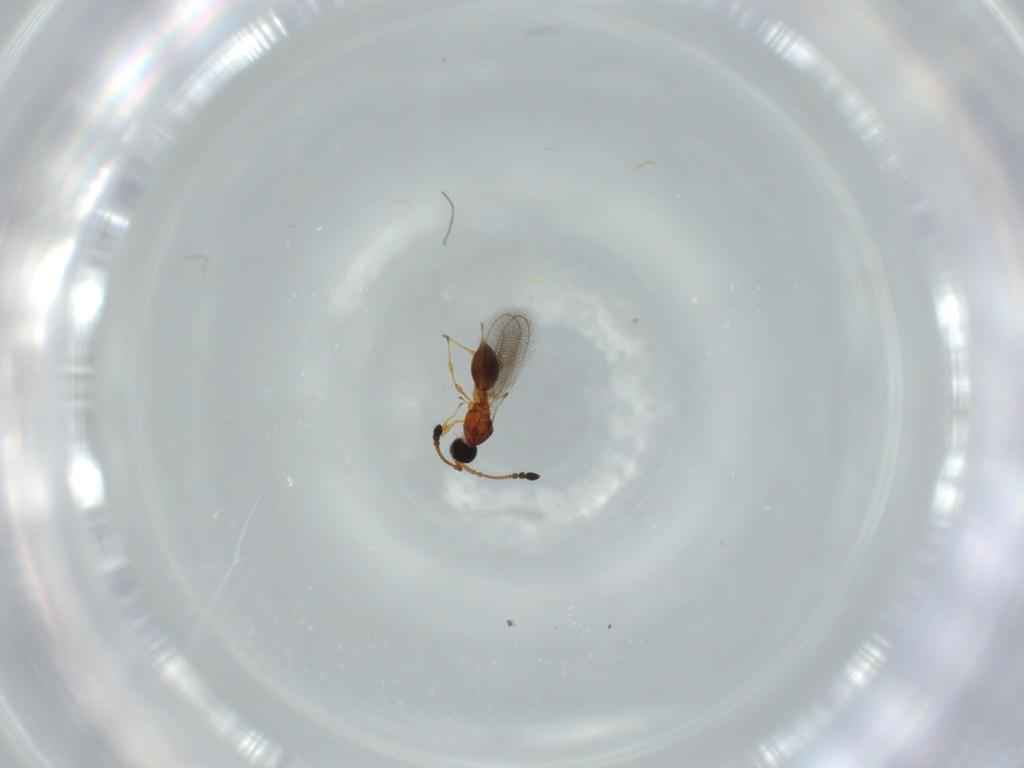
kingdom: Animalia
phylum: Arthropoda
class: Insecta
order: Hymenoptera
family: Diapriidae
